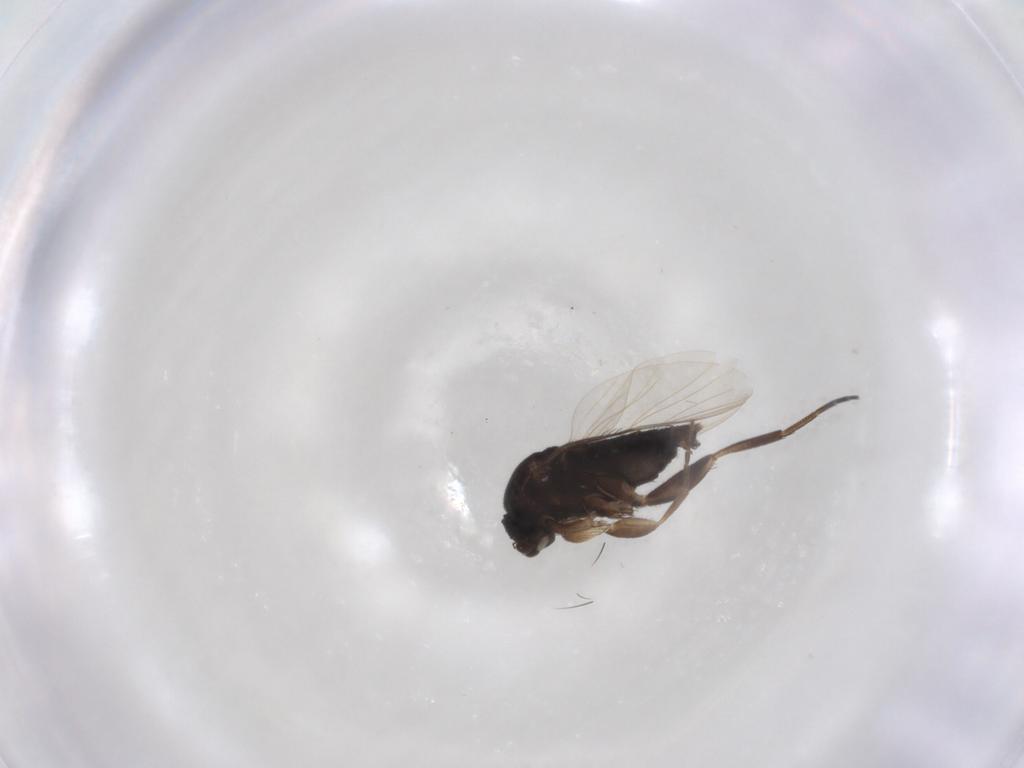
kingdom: Animalia
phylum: Arthropoda
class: Insecta
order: Diptera
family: Phoridae
